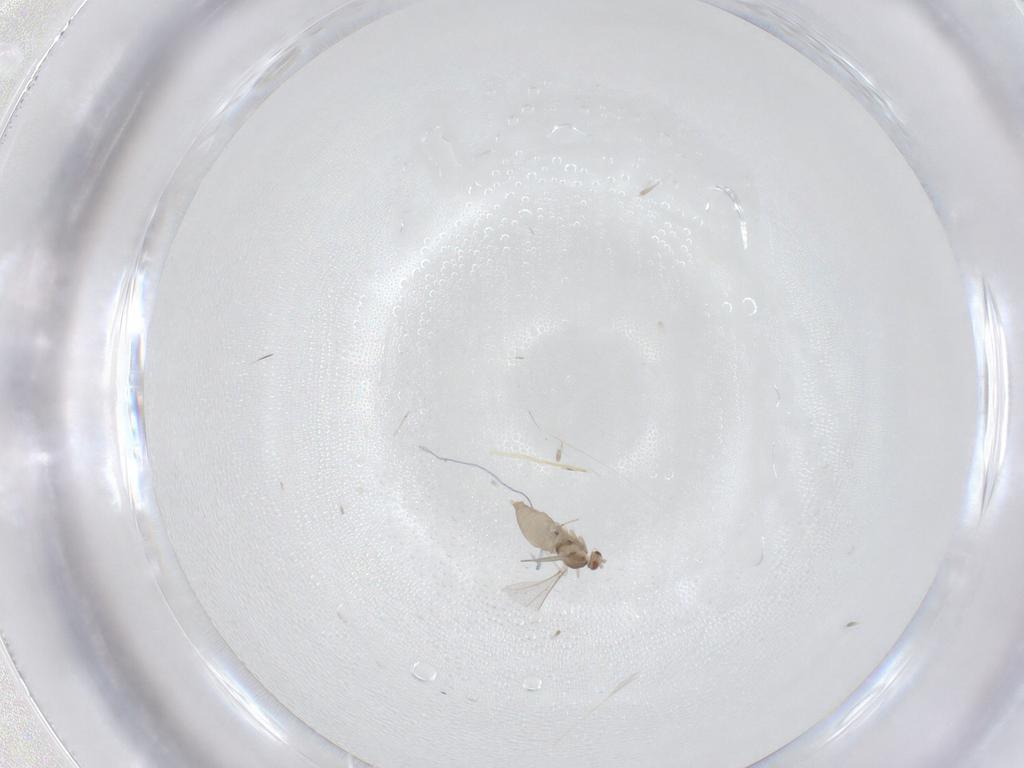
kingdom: Animalia
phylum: Arthropoda
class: Insecta
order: Diptera
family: Cecidomyiidae
